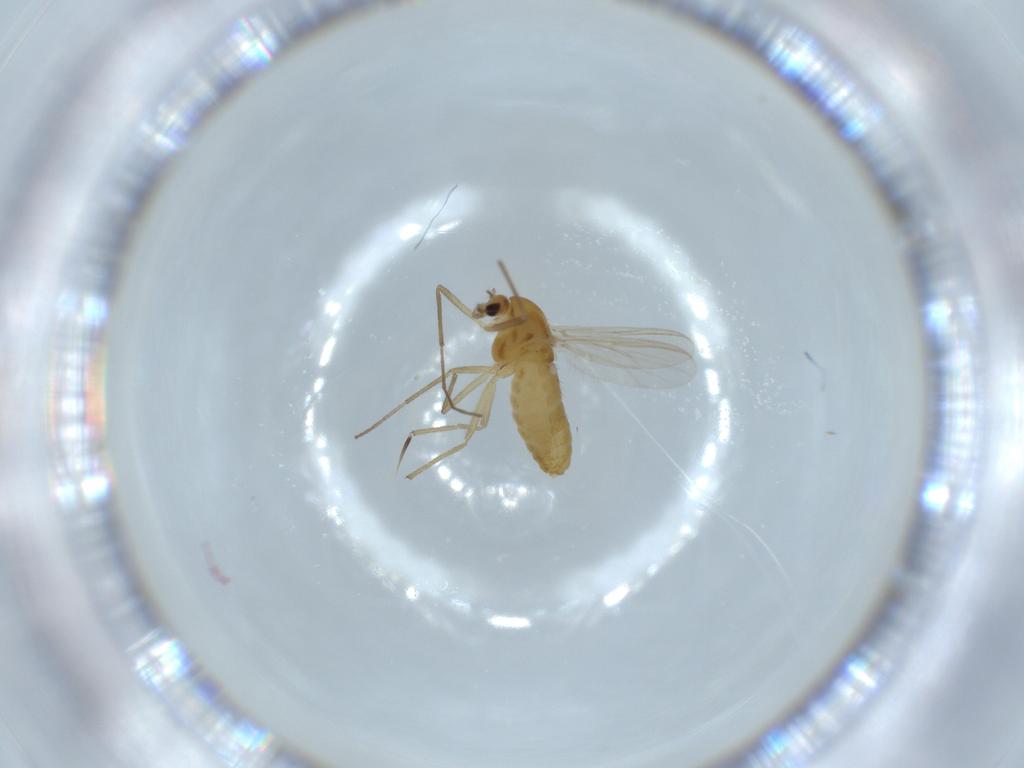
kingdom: Animalia
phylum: Arthropoda
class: Insecta
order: Diptera
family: Chironomidae
